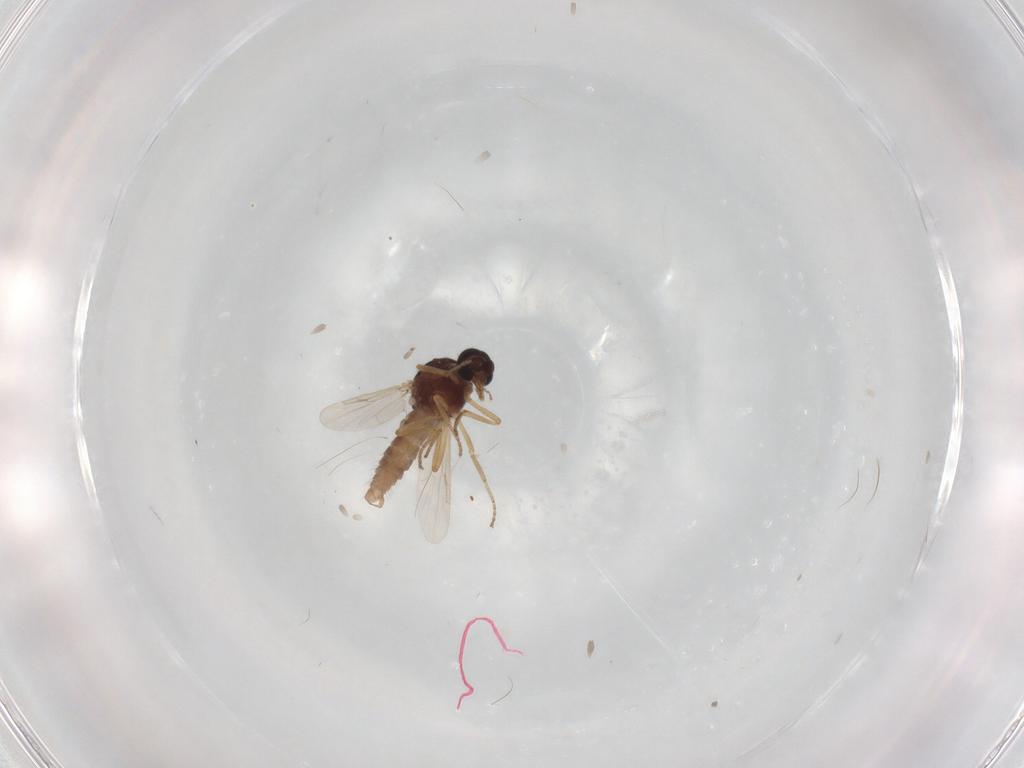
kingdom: Animalia
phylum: Arthropoda
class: Insecta
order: Diptera
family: Ceratopogonidae
